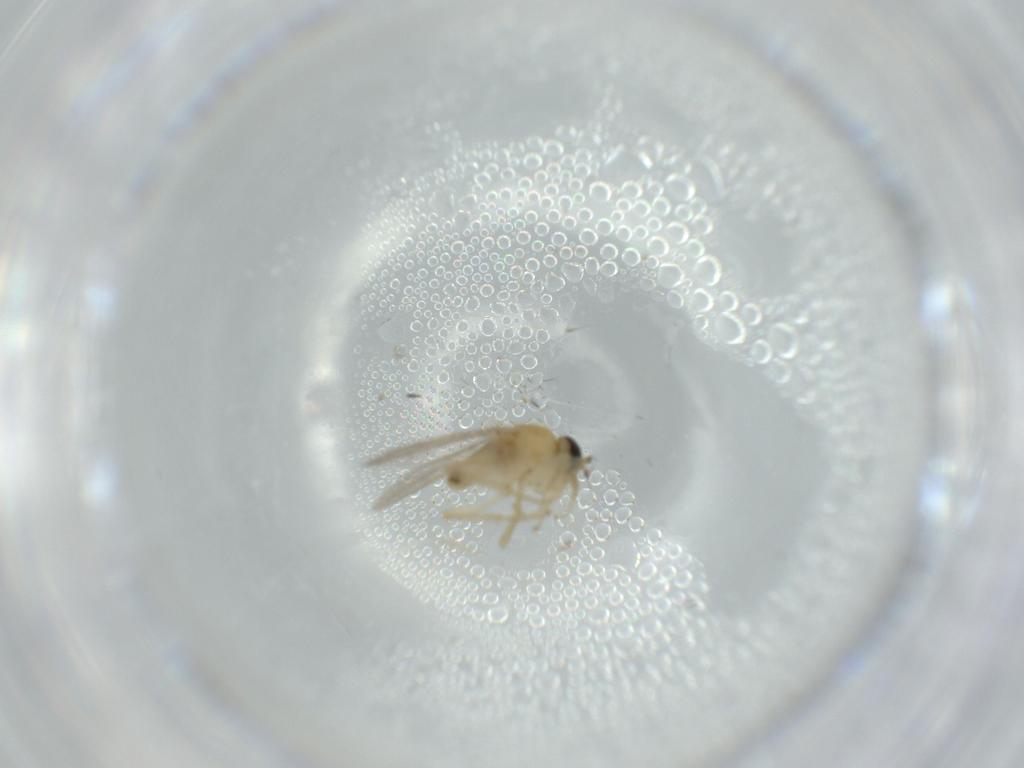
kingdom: Animalia
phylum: Arthropoda
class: Insecta
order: Diptera
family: Hybotidae
